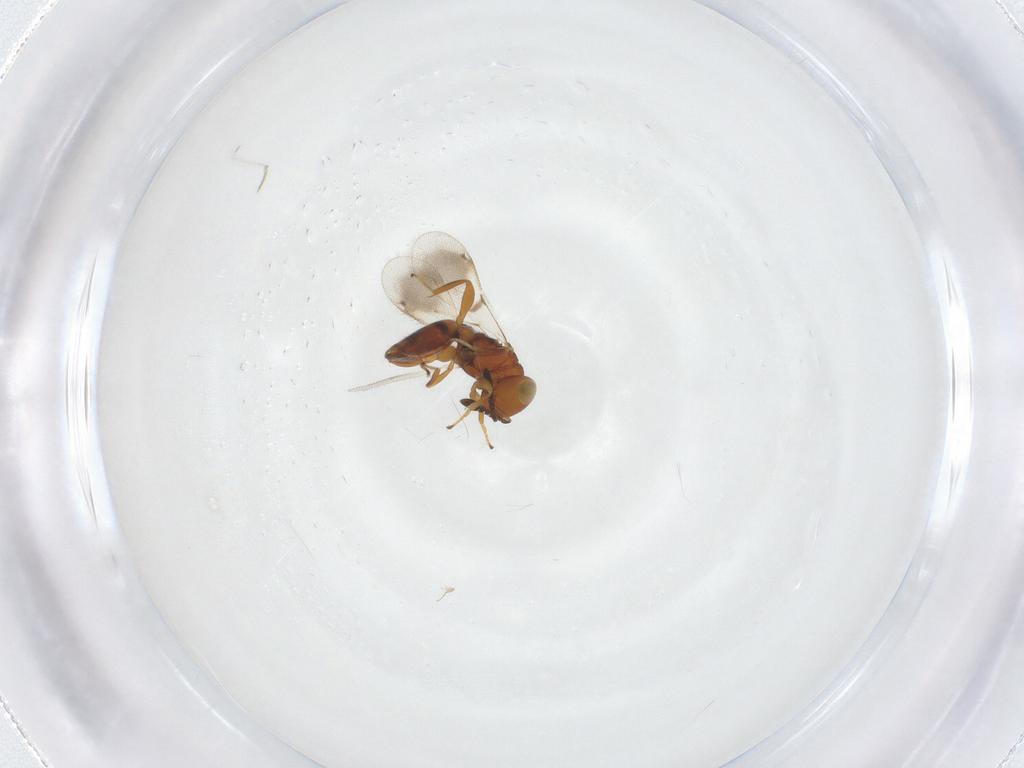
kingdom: Animalia
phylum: Arthropoda
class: Insecta
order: Hymenoptera
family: Moranilidae
